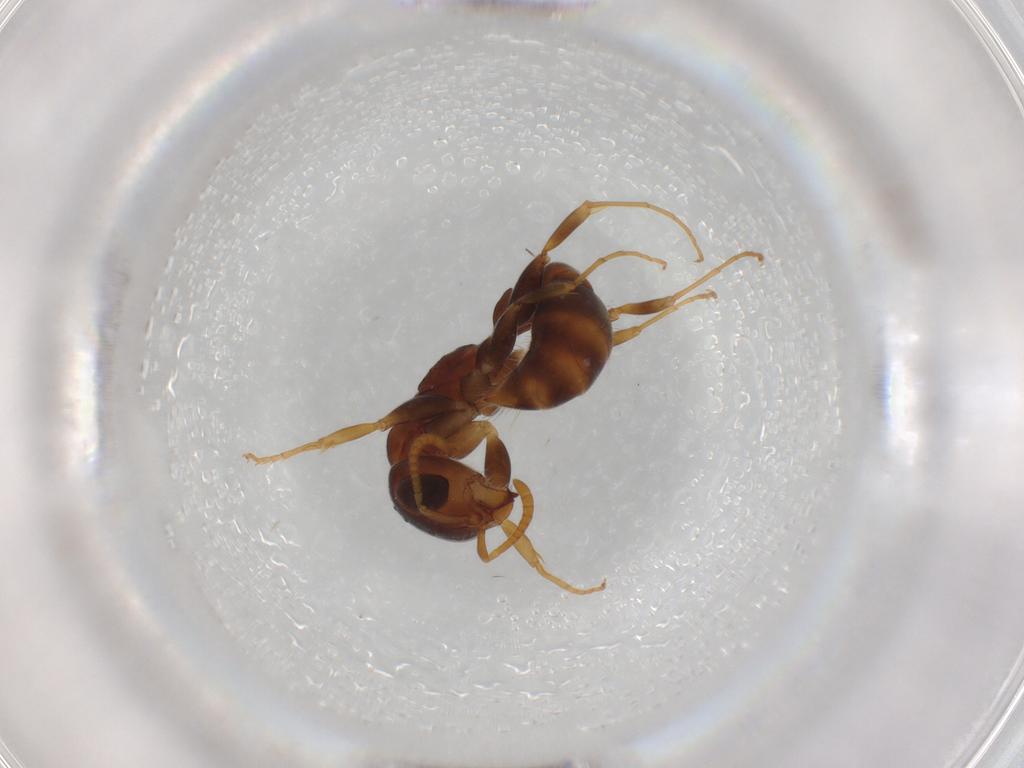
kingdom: Animalia
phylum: Arthropoda
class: Insecta
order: Hymenoptera
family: Formicidae
